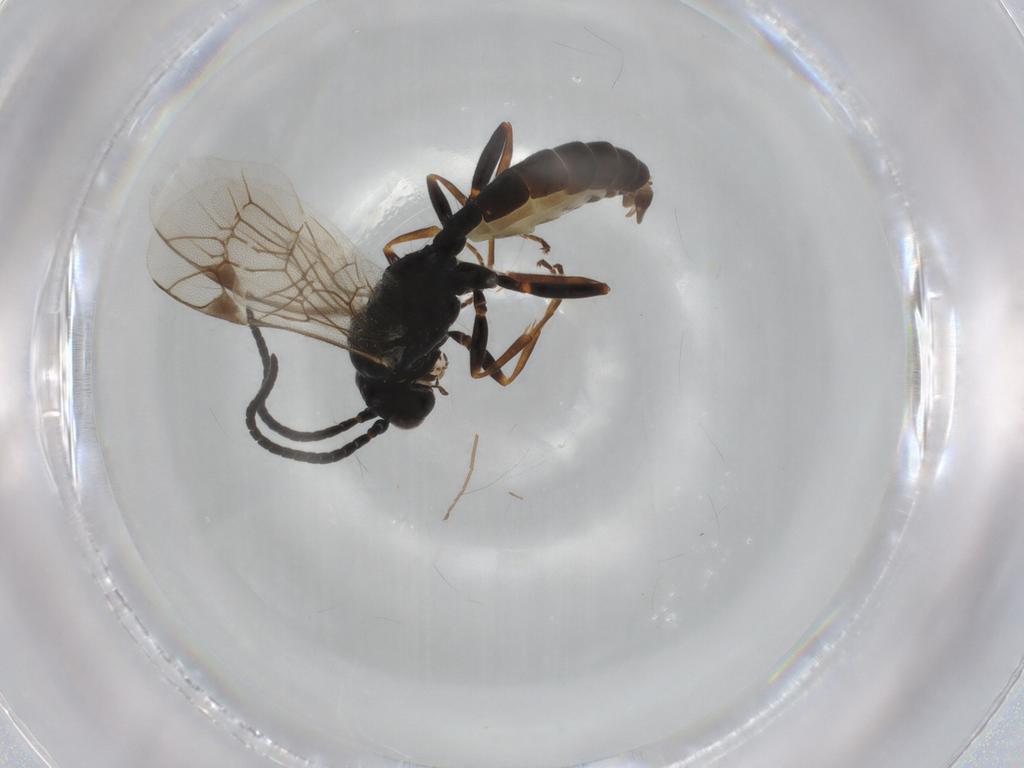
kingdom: Animalia
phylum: Arthropoda
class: Insecta
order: Hymenoptera
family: Ichneumonidae
